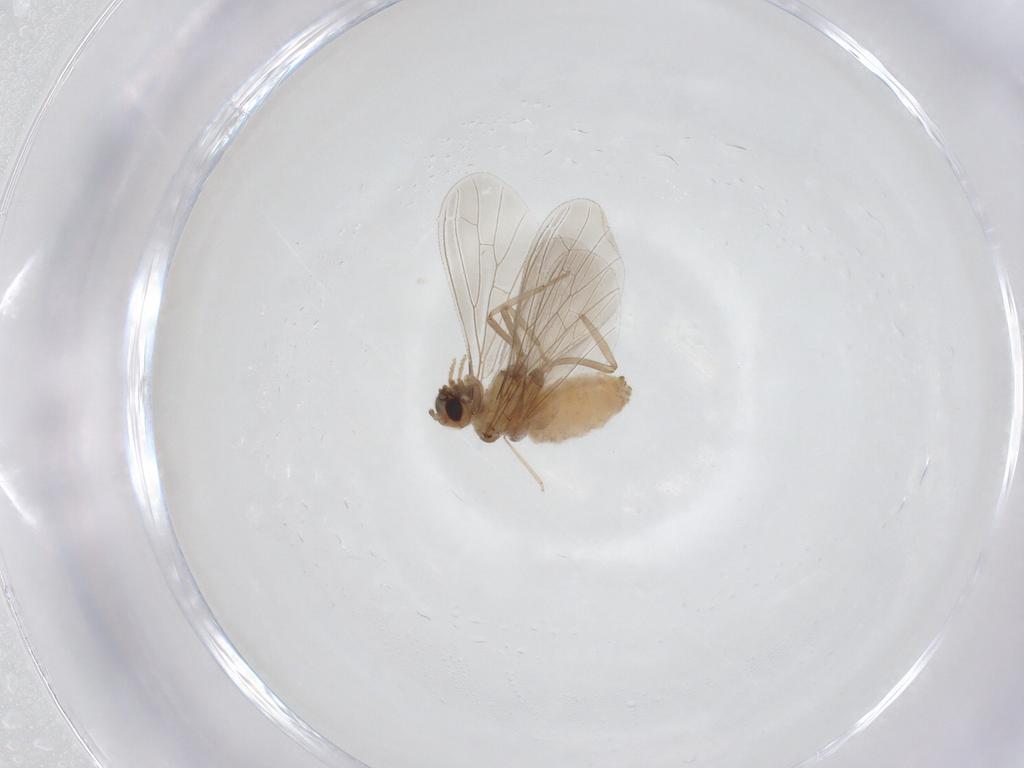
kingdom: Animalia
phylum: Arthropoda
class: Insecta
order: Neuroptera
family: Coniopterygidae
